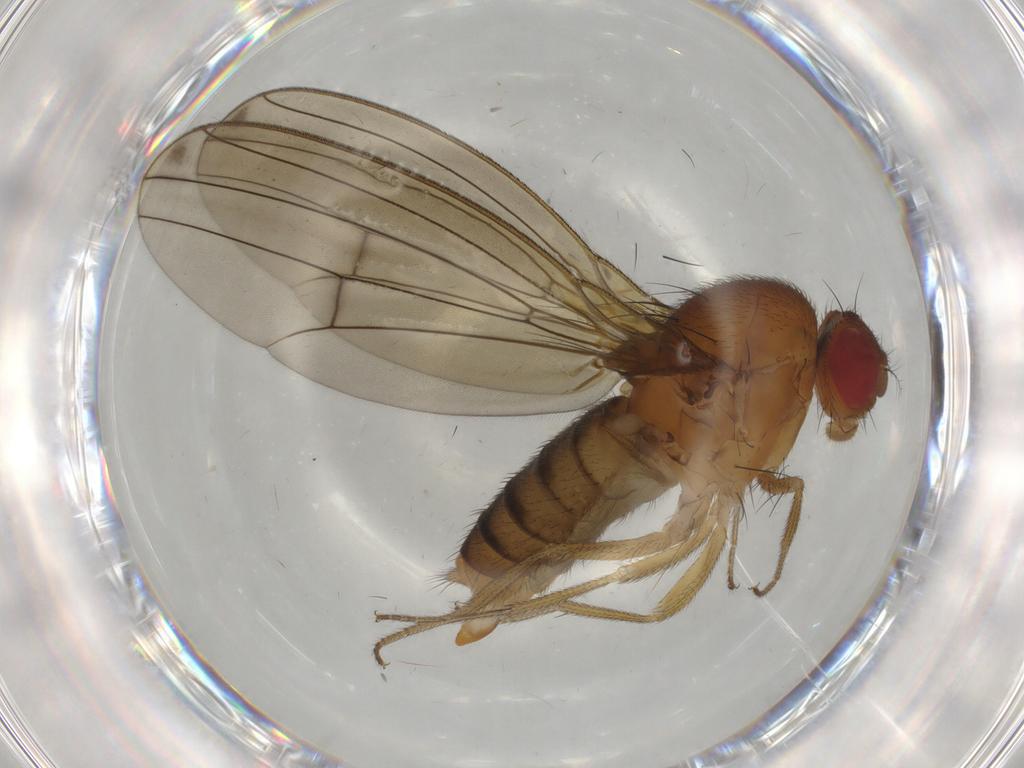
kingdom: Animalia
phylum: Arthropoda
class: Insecta
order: Diptera
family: Drosophilidae
